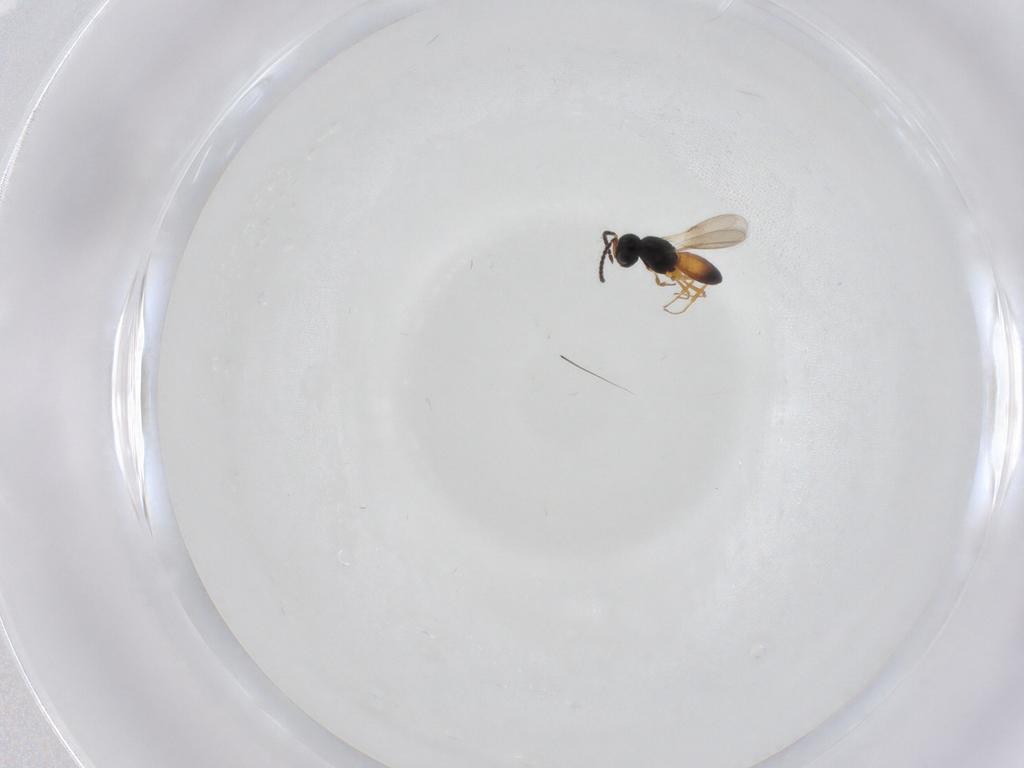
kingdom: Animalia
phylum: Arthropoda
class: Insecta
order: Hymenoptera
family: Scelionidae
